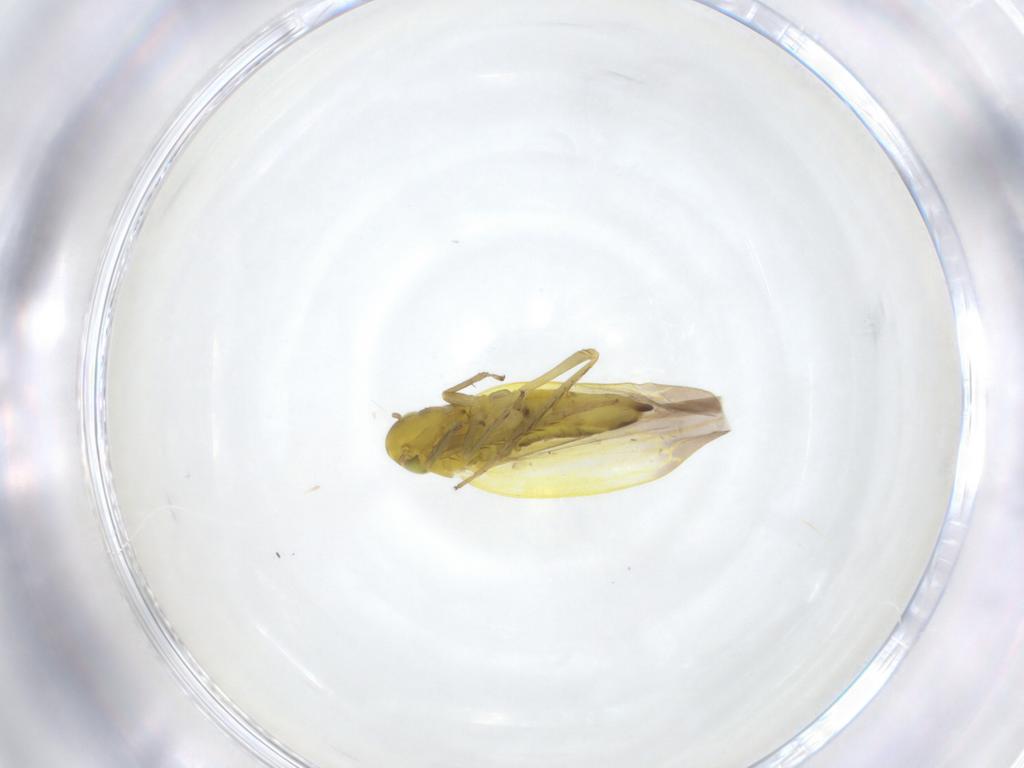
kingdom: Animalia
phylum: Arthropoda
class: Insecta
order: Hemiptera
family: Cicadellidae
